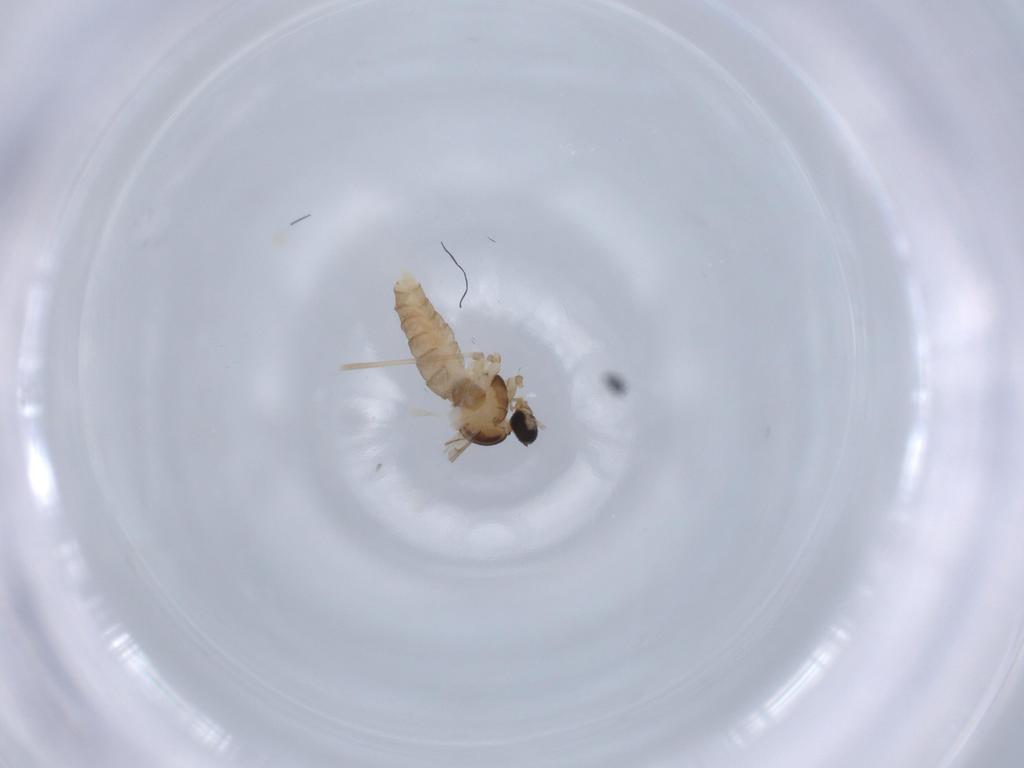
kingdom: Animalia
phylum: Arthropoda
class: Insecta
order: Diptera
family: Cecidomyiidae
